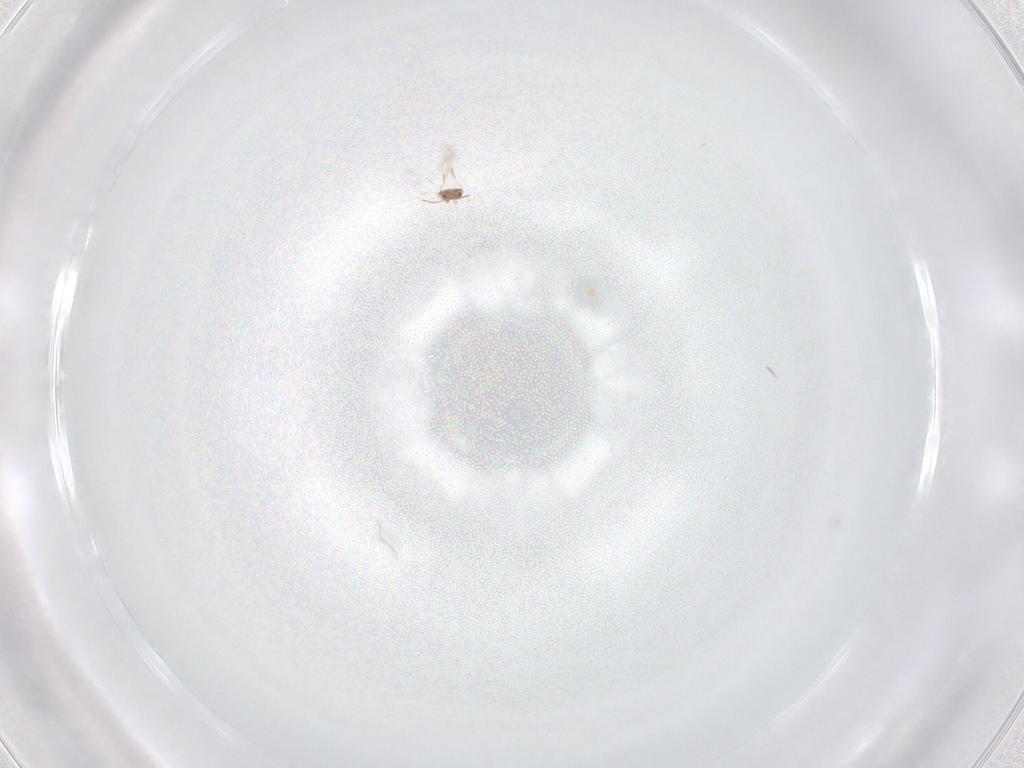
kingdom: Animalia
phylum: Arthropoda
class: Insecta
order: Hymenoptera
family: Aphelinidae
